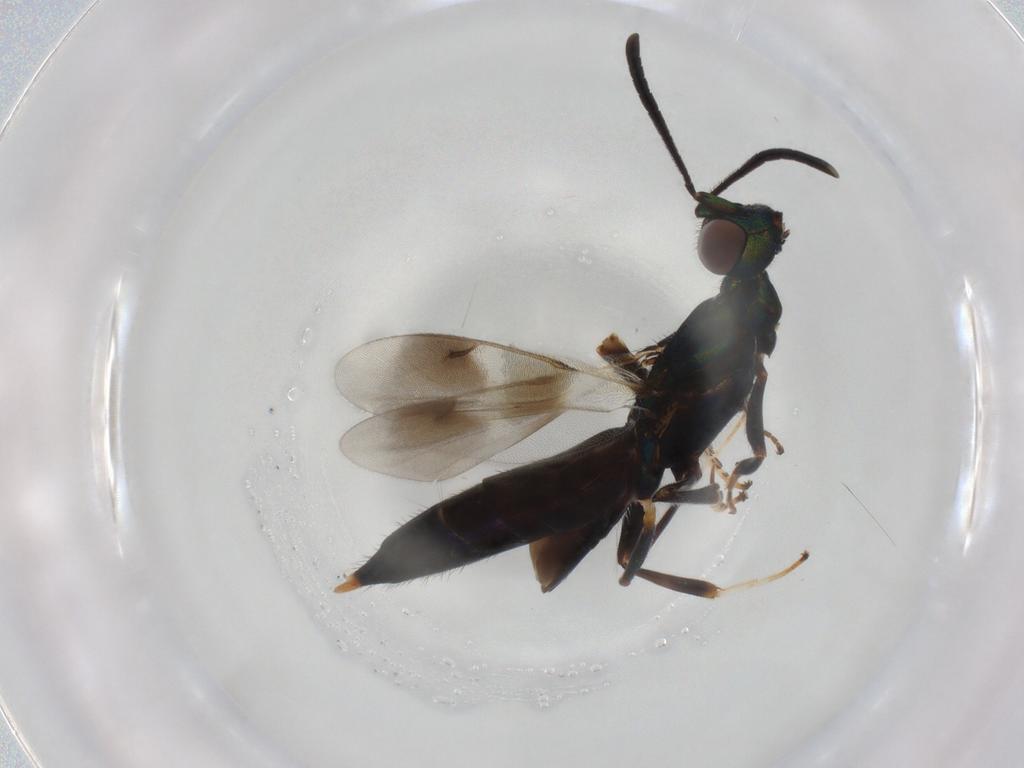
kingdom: Animalia
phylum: Arthropoda
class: Insecta
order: Hymenoptera
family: Eupelmidae
